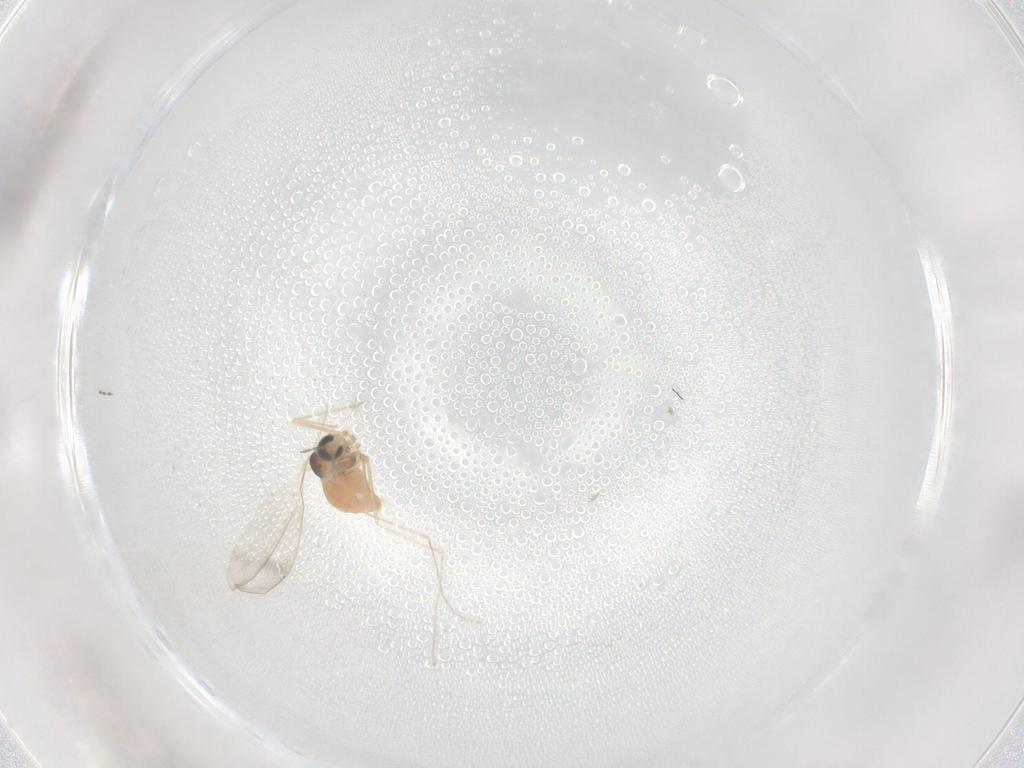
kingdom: Animalia
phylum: Arthropoda
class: Insecta
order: Diptera
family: Cecidomyiidae
